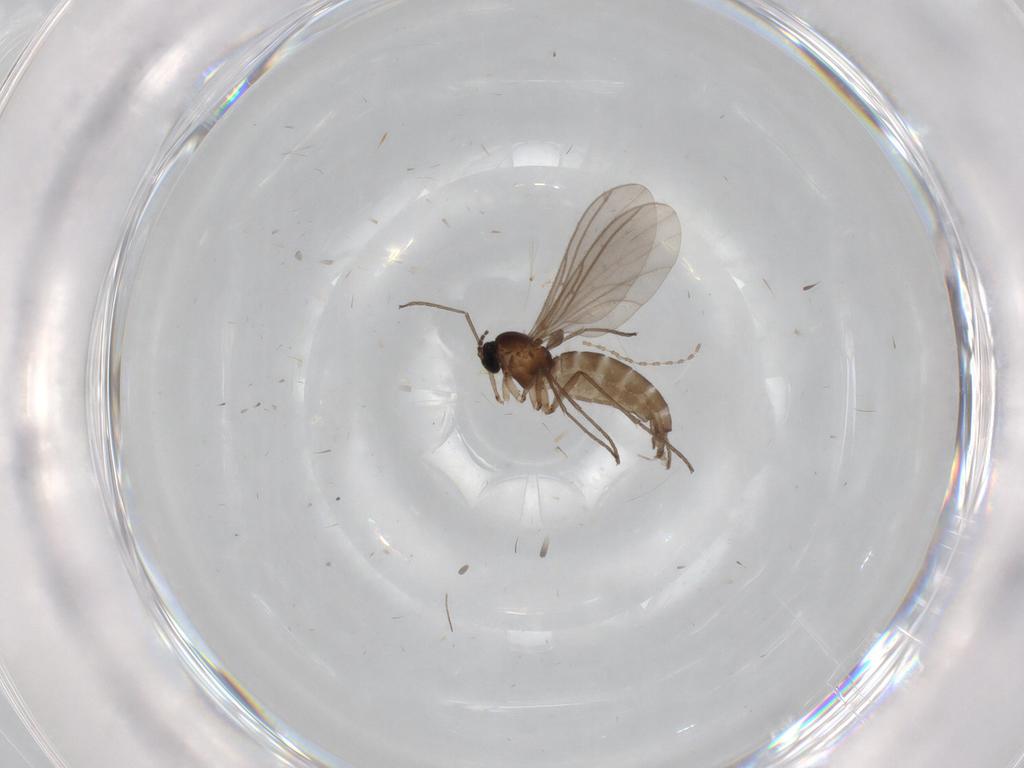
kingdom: Animalia
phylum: Arthropoda
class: Insecta
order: Diptera
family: Sciaridae
